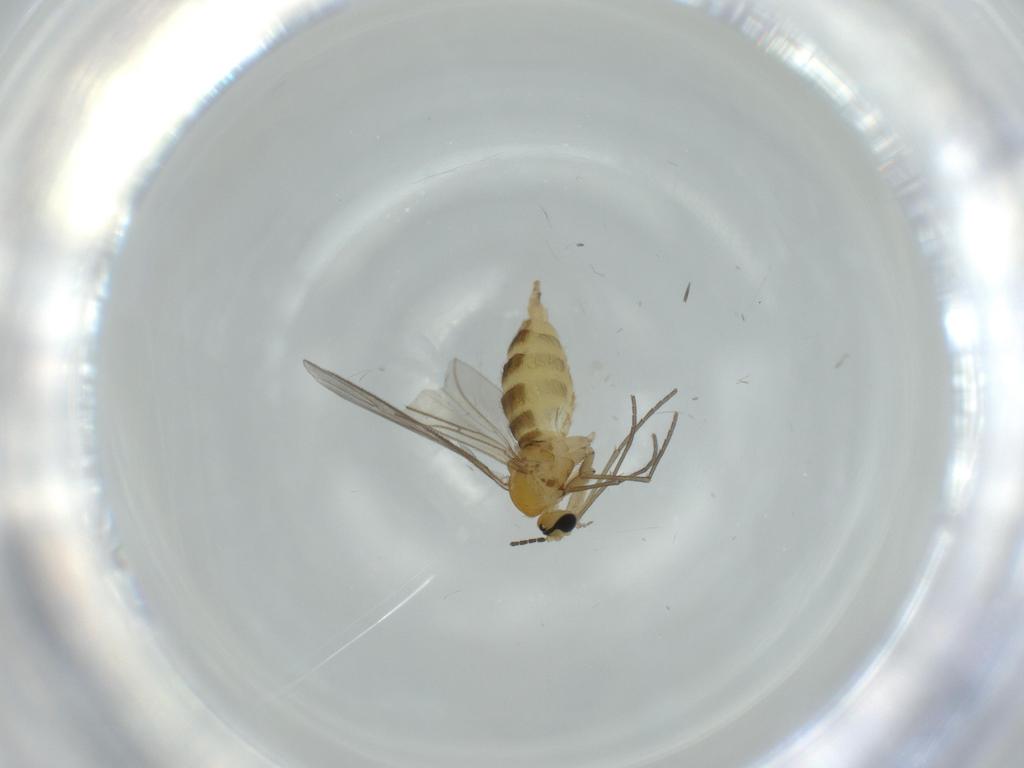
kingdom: Animalia
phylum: Arthropoda
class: Insecta
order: Diptera
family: Sciaridae
